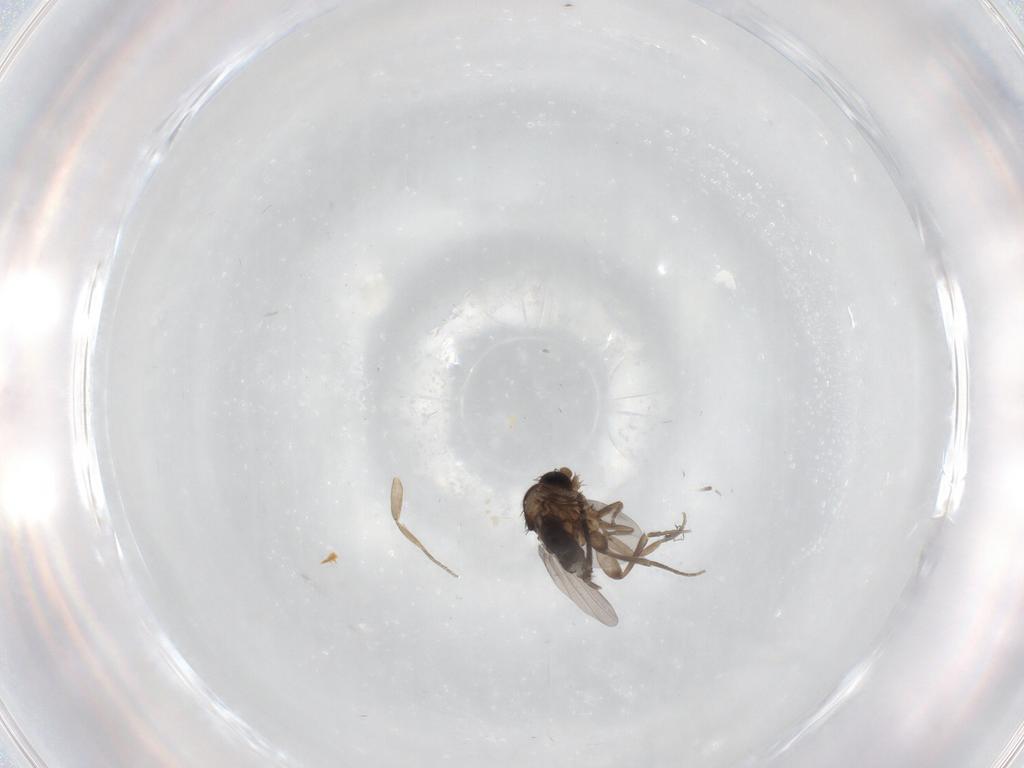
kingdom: Animalia
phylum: Arthropoda
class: Insecta
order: Diptera
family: Phoridae
